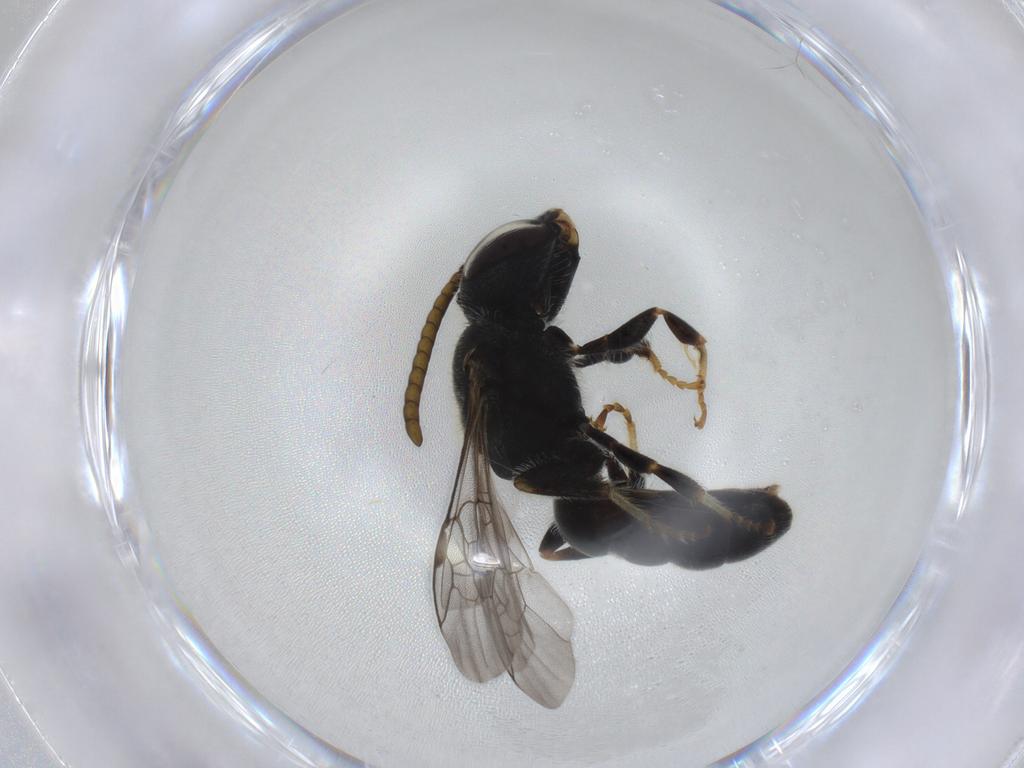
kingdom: Animalia
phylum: Arthropoda
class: Insecta
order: Hymenoptera
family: Halictidae
